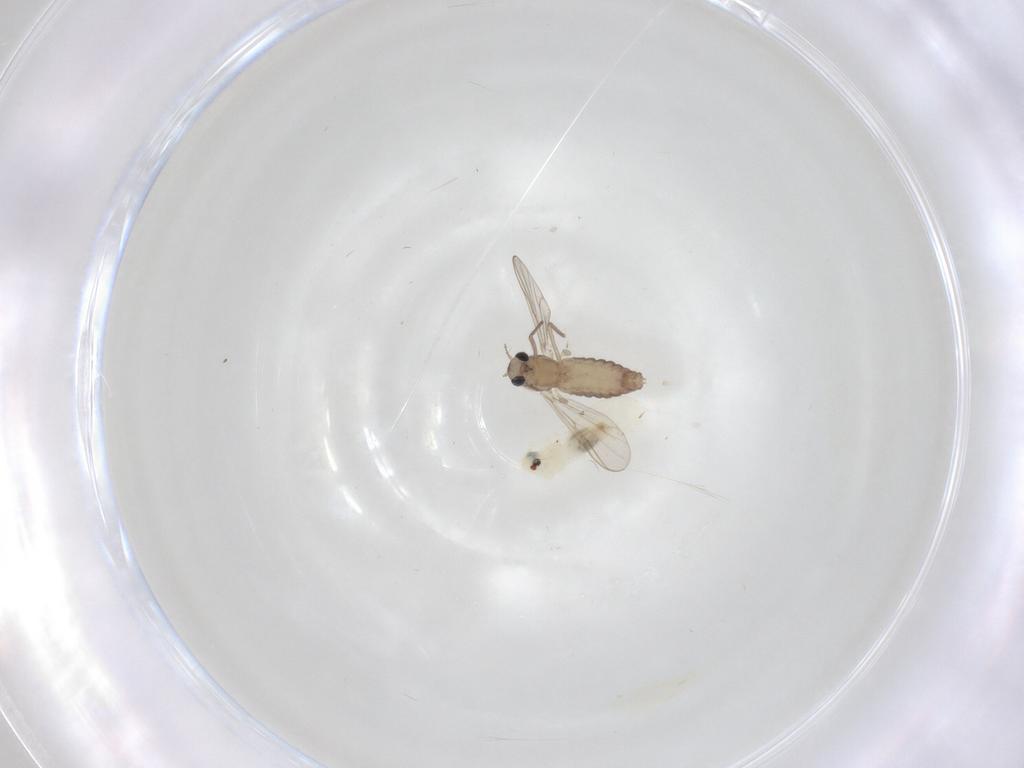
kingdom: Animalia
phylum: Arthropoda
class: Insecta
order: Diptera
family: Chironomidae
